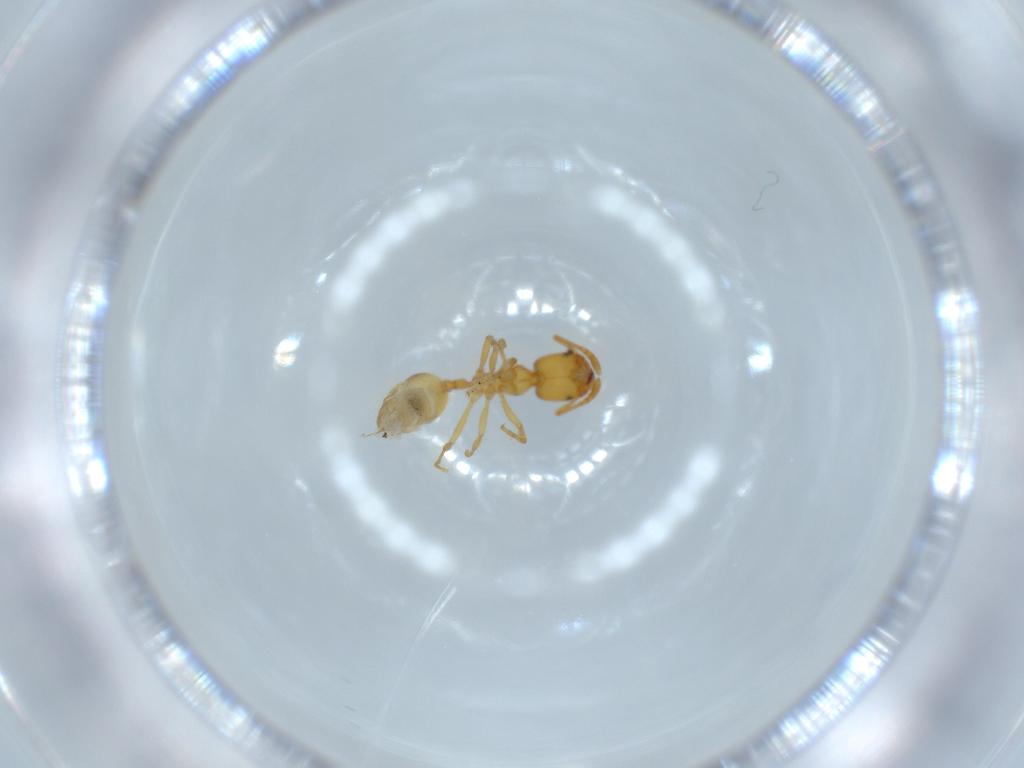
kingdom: Animalia
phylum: Arthropoda
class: Insecta
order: Hymenoptera
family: Formicidae
